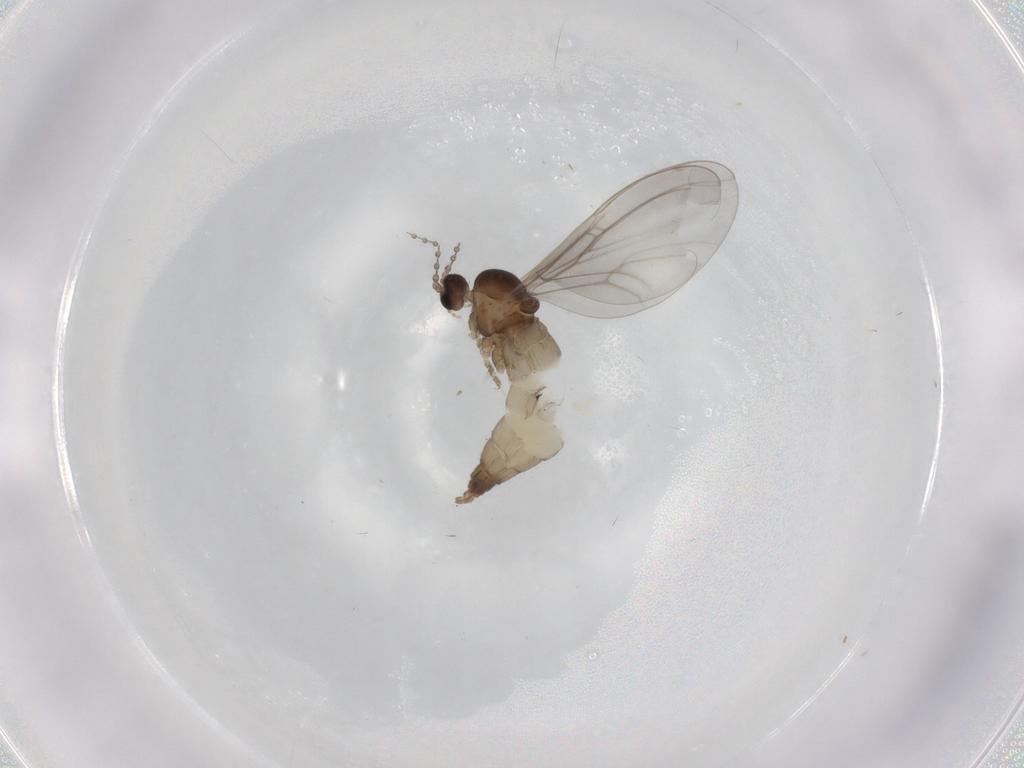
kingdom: Animalia
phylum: Arthropoda
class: Insecta
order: Diptera
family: Cecidomyiidae
